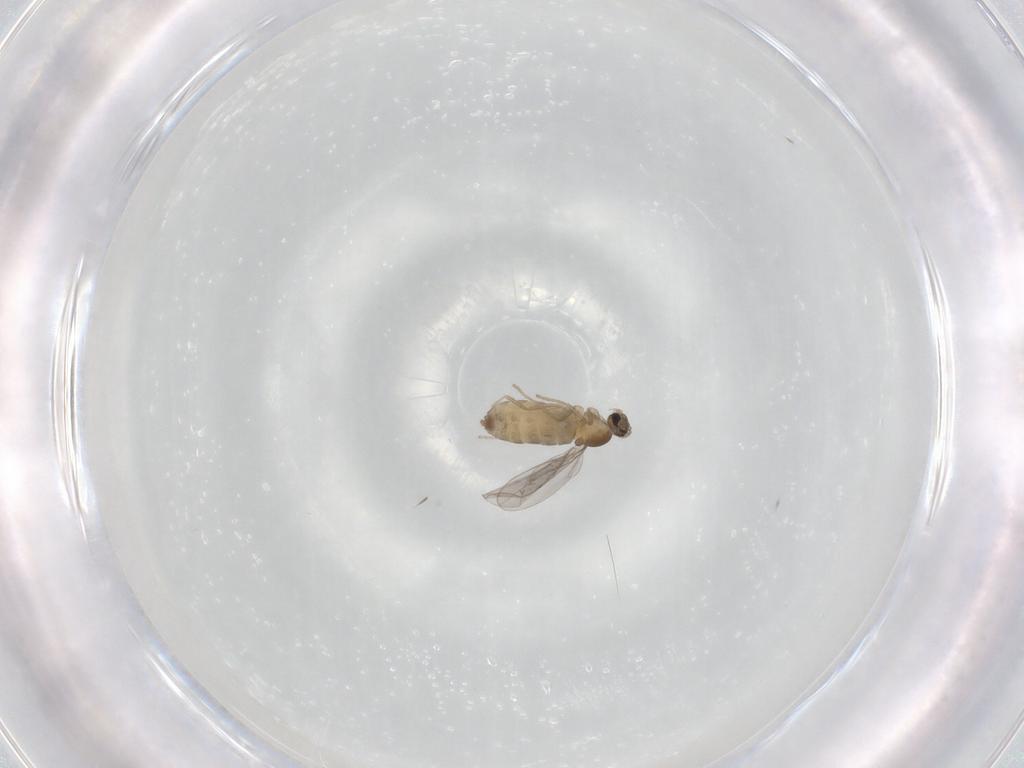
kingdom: Animalia
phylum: Arthropoda
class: Insecta
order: Diptera
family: Cecidomyiidae
